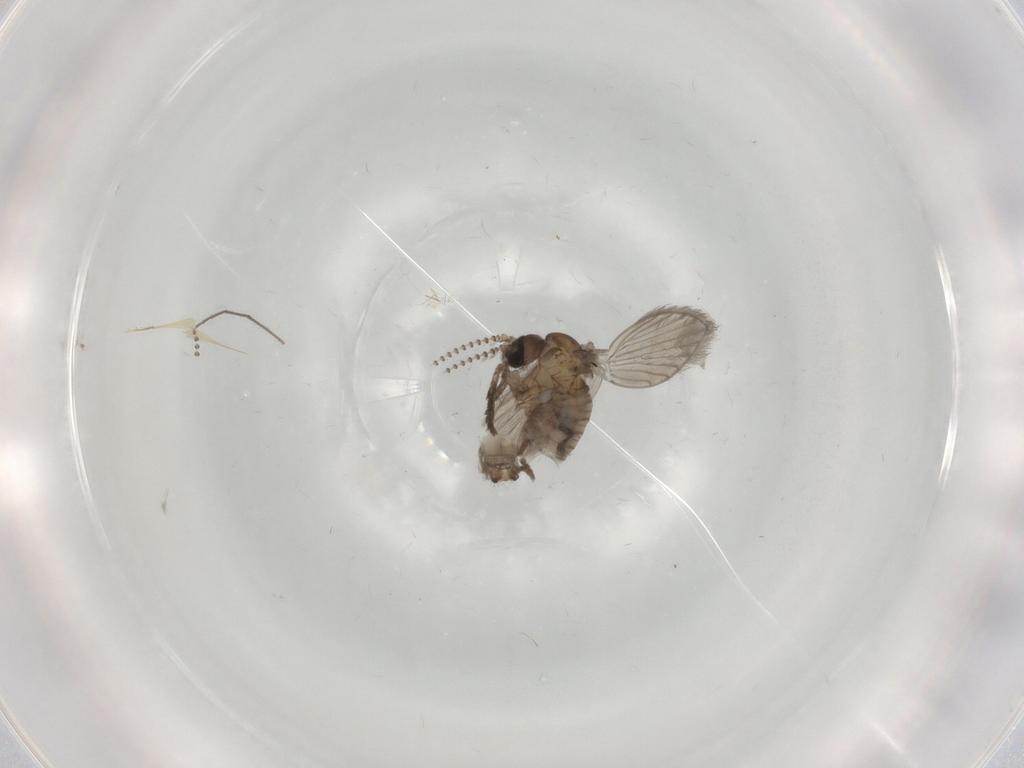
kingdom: Animalia
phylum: Arthropoda
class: Insecta
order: Diptera
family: Psychodidae
